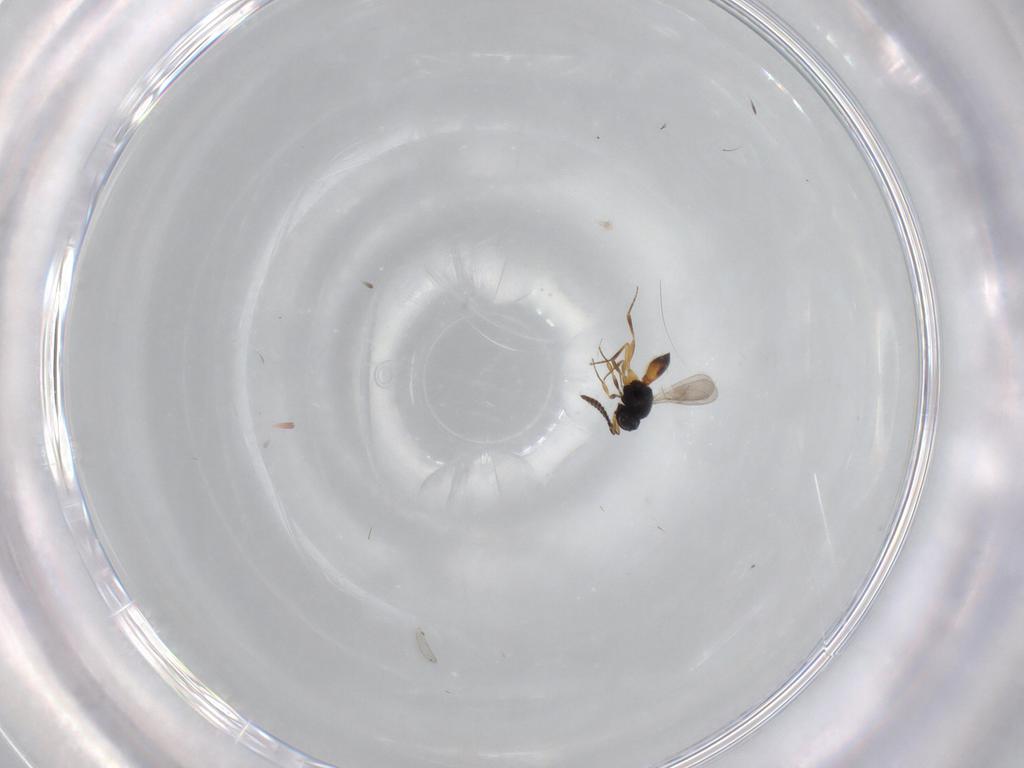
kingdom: Animalia
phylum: Arthropoda
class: Insecta
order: Hymenoptera
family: Scelionidae
